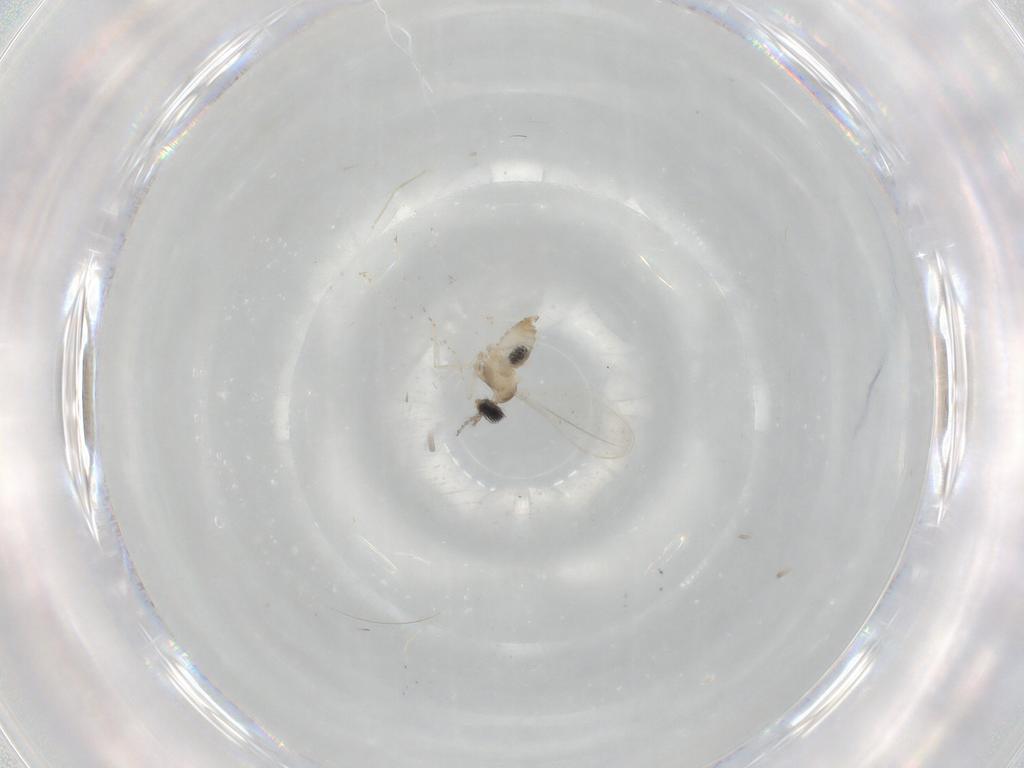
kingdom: Animalia
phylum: Arthropoda
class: Insecta
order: Diptera
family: Cecidomyiidae
